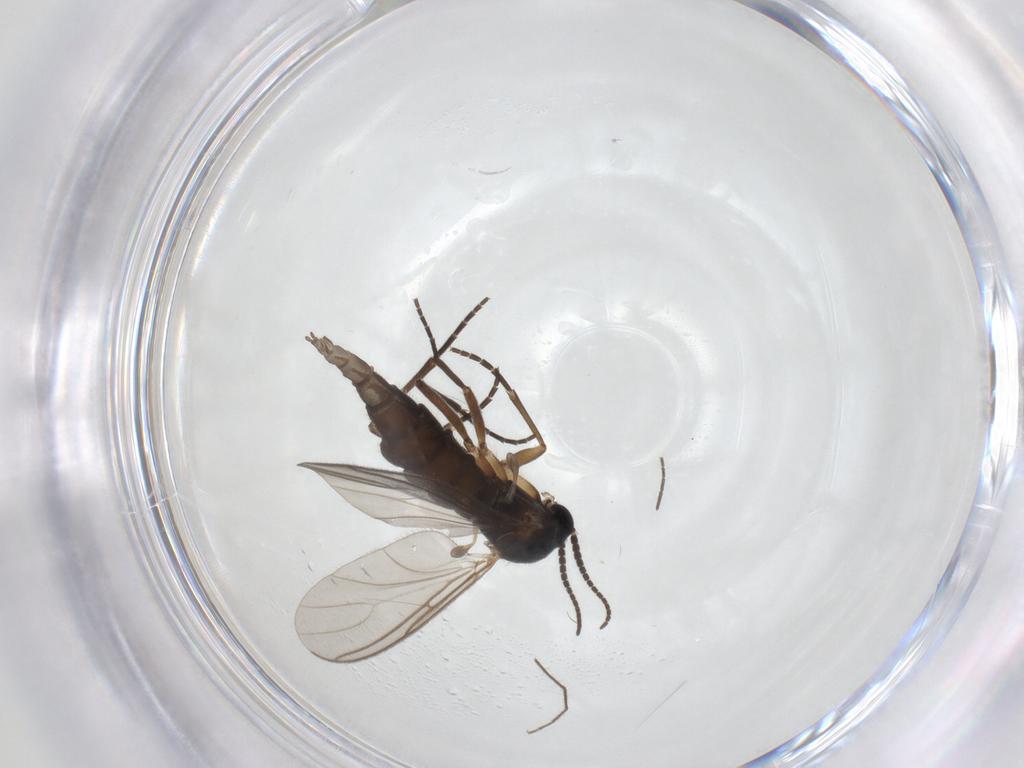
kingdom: Animalia
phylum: Arthropoda
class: Insecta
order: Diptera
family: Sciaridae
